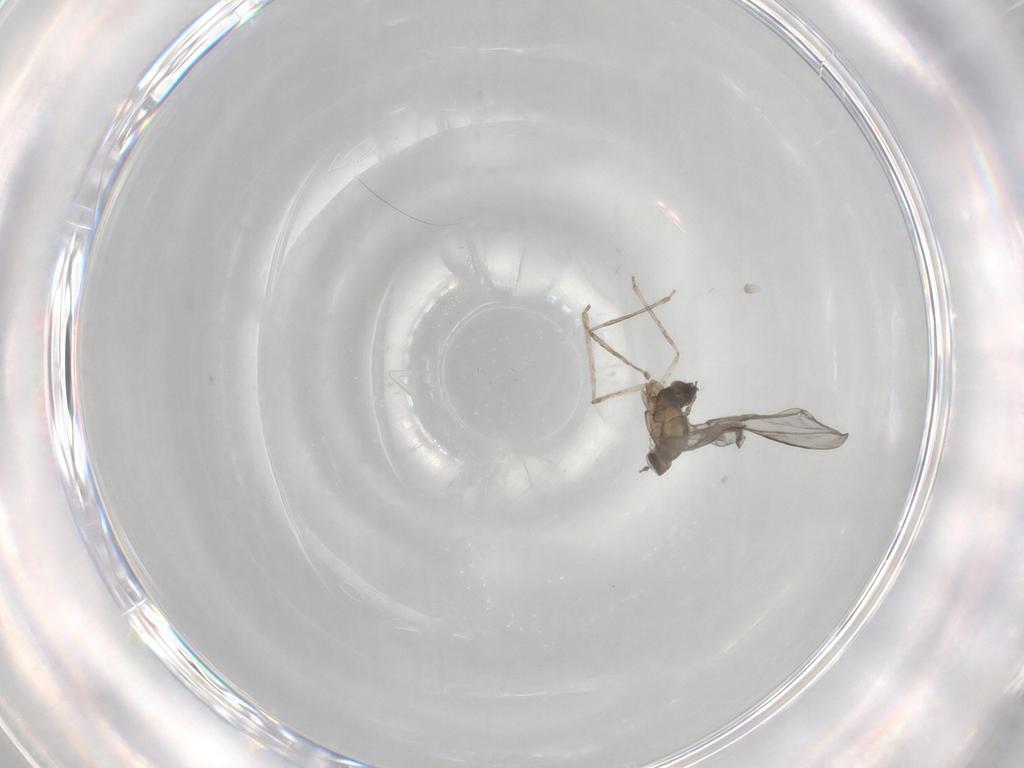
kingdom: Animalia
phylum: Arthropoda
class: Insecta
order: Diptera
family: Cecidomyiidae
